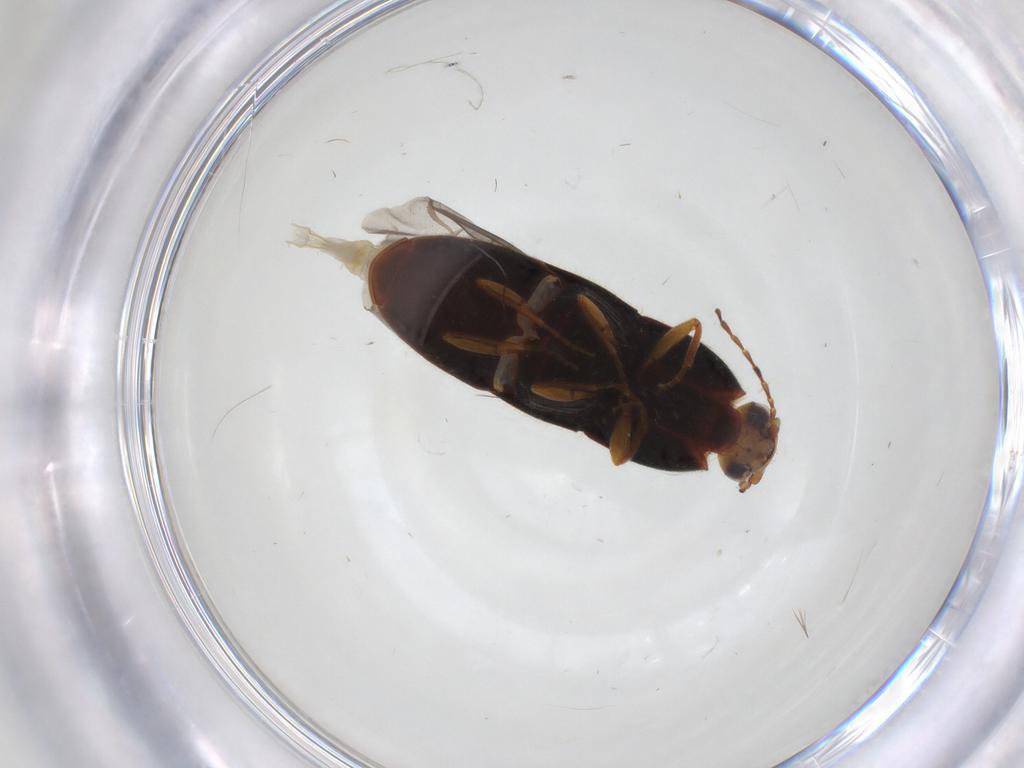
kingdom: Animalia
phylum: Arthropoda
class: Insecta
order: Coleoptera
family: Elateridae
